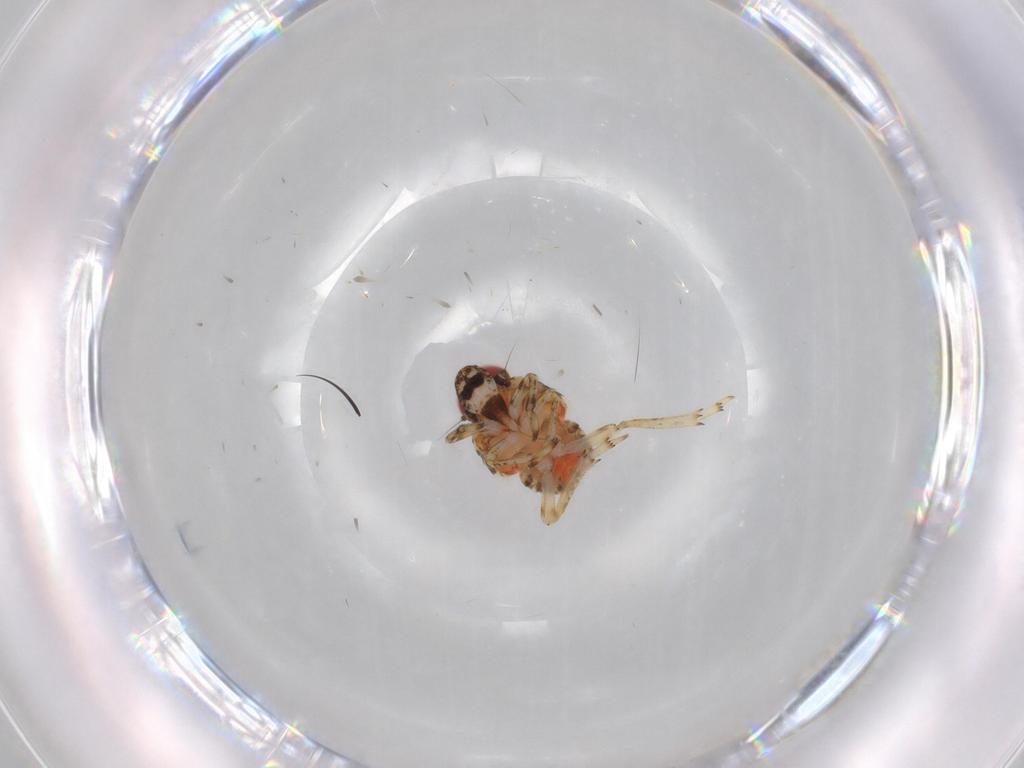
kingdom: Animalia
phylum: Arthropoda
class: Insecta
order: Hemiptera
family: Issidae
